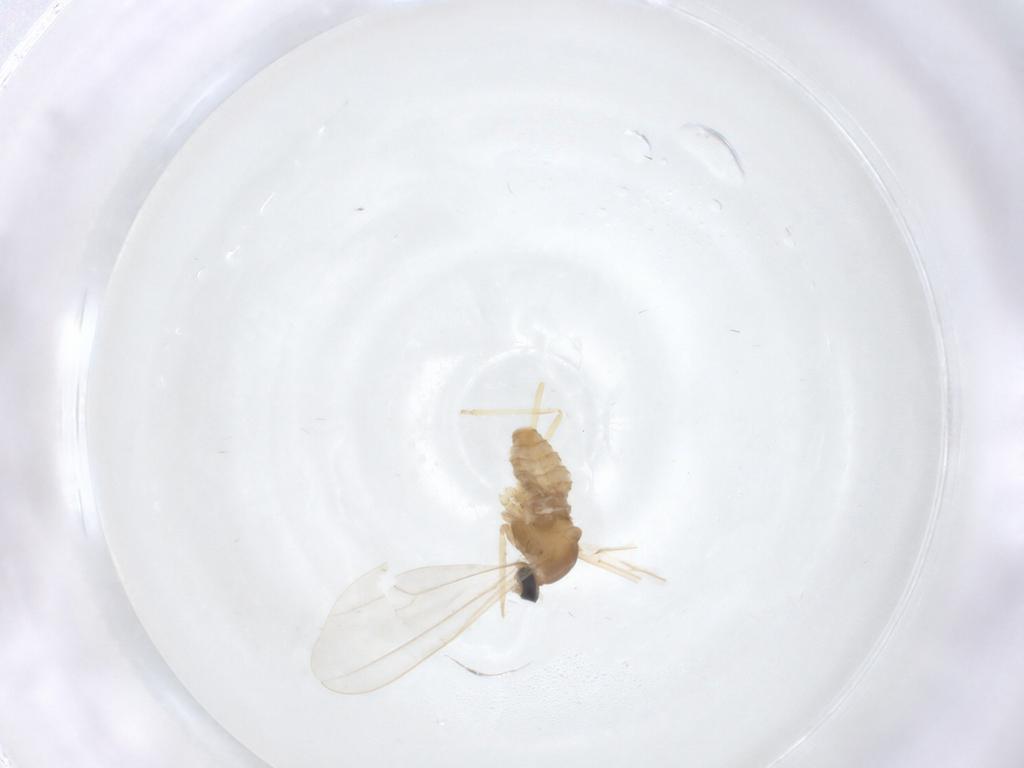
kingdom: Animalia
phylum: Arthropoda
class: Insecta
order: Diptera
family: Cecidomyiidae
